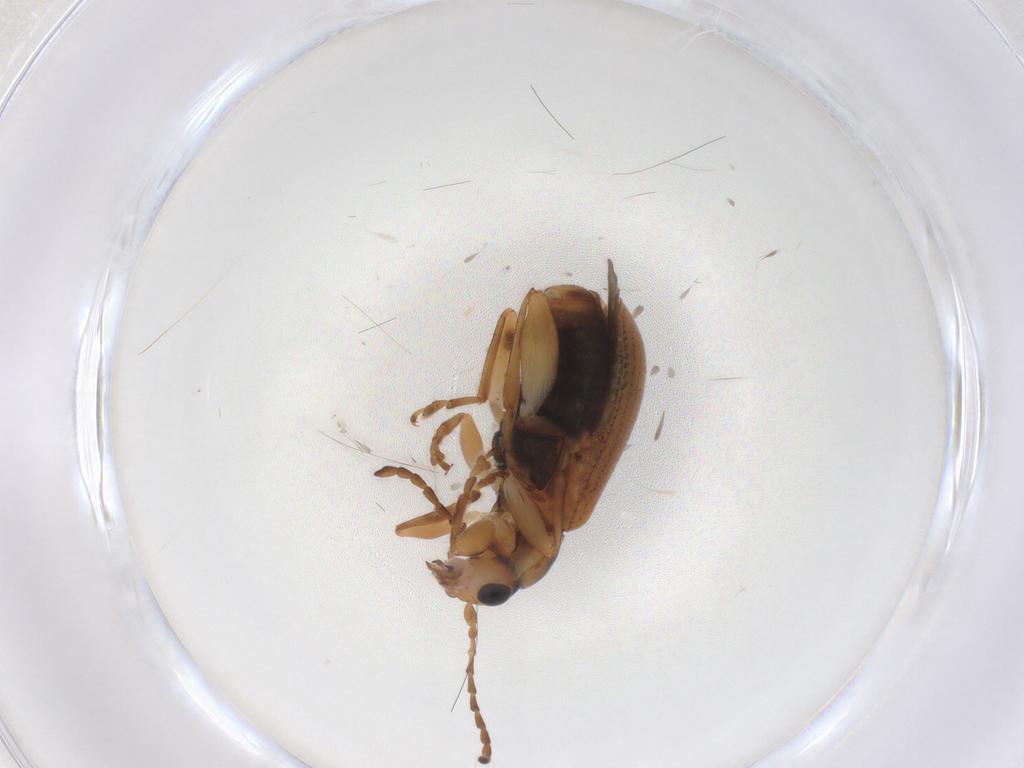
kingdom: Animalia
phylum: Arthropoda
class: Insecta
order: Coleoptera
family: Chrysomelidae
